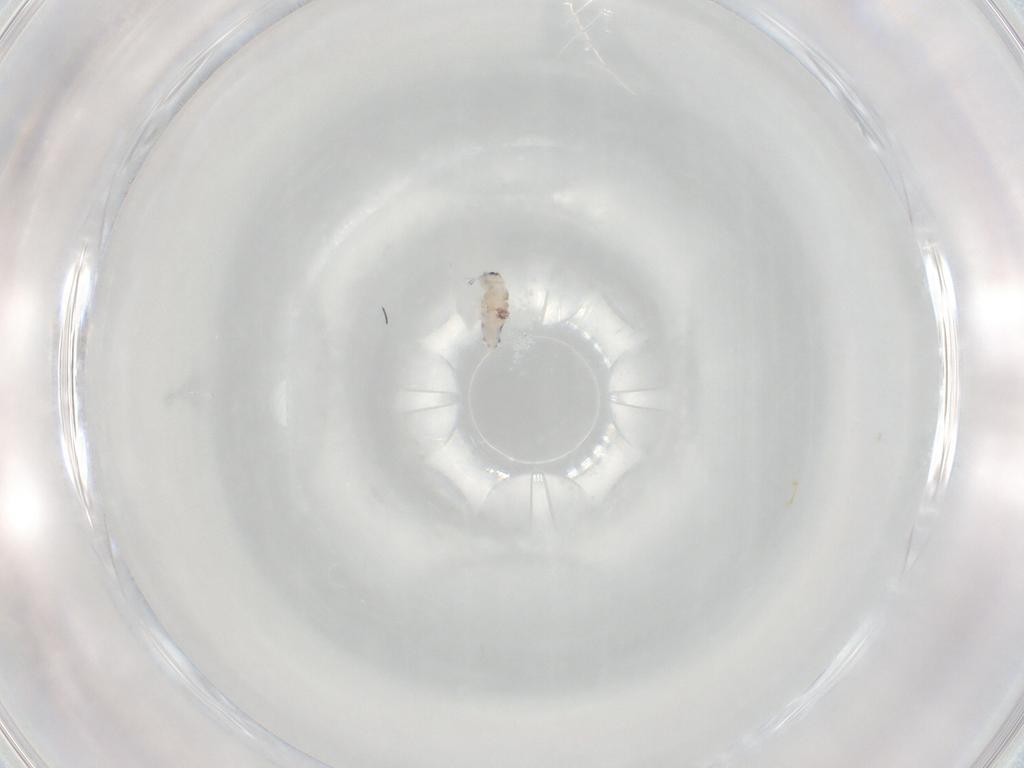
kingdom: Animalia
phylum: Arthropoda
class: Collembola
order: Entomobryomorpha
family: Entomobryidae
